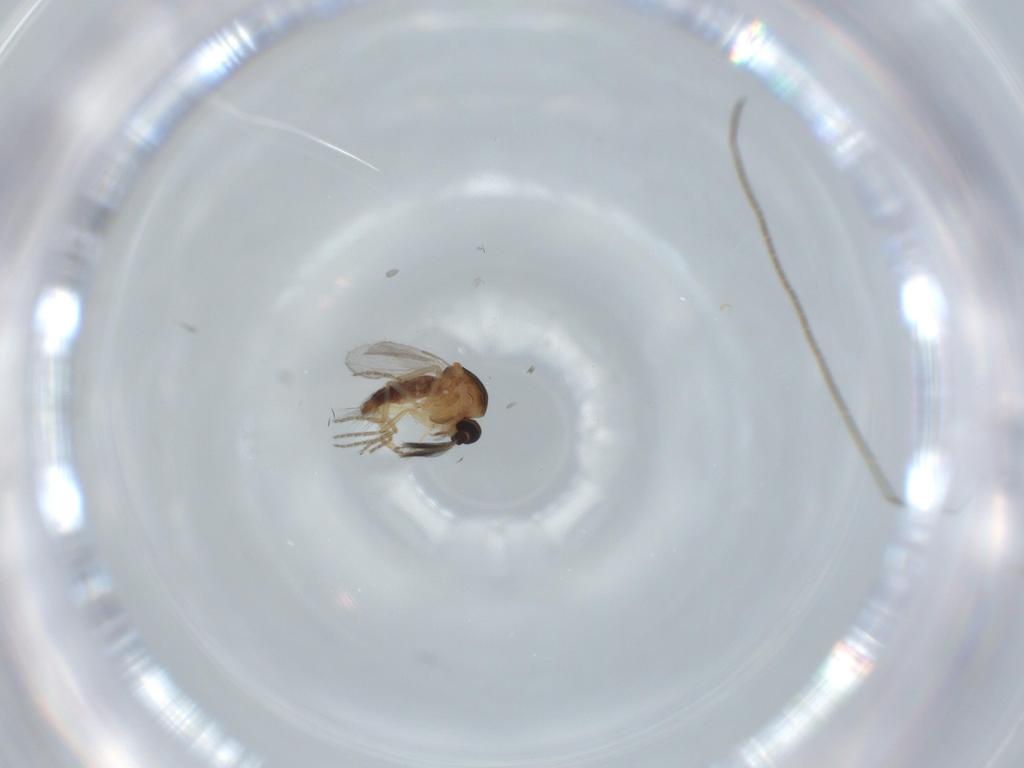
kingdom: Animalia
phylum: Arthropoda
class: Insecta
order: Diptera
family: Ceratopogonidae
